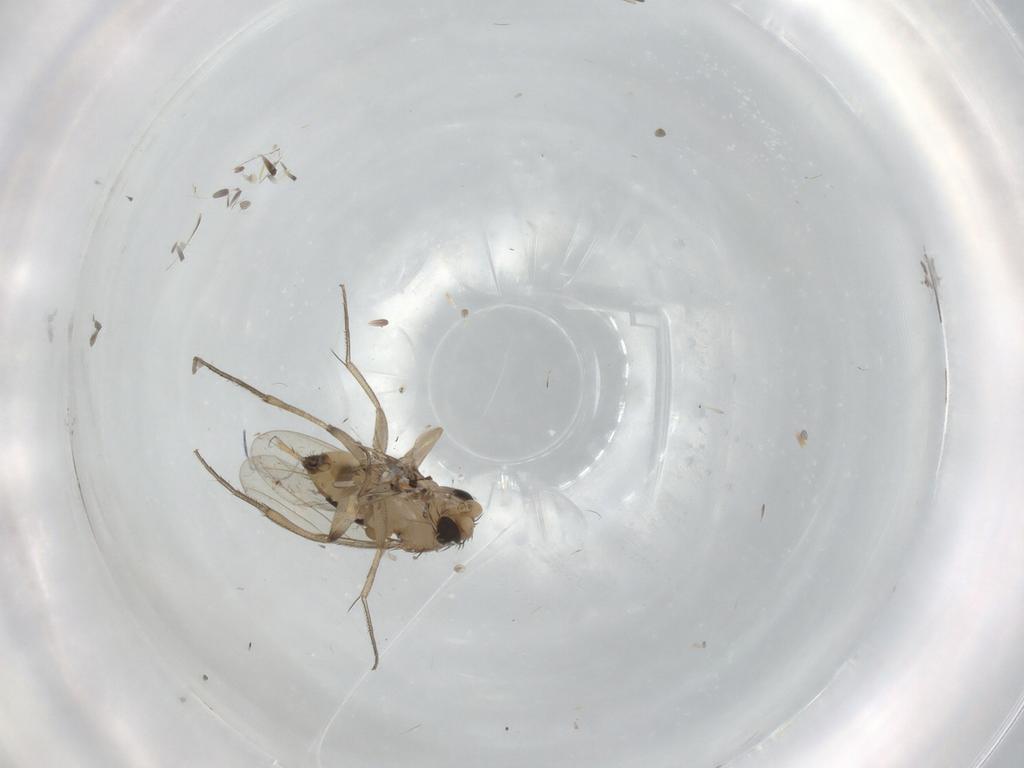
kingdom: Animalia
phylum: Arthropoda
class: Insecta
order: Diptera
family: Phoridae
